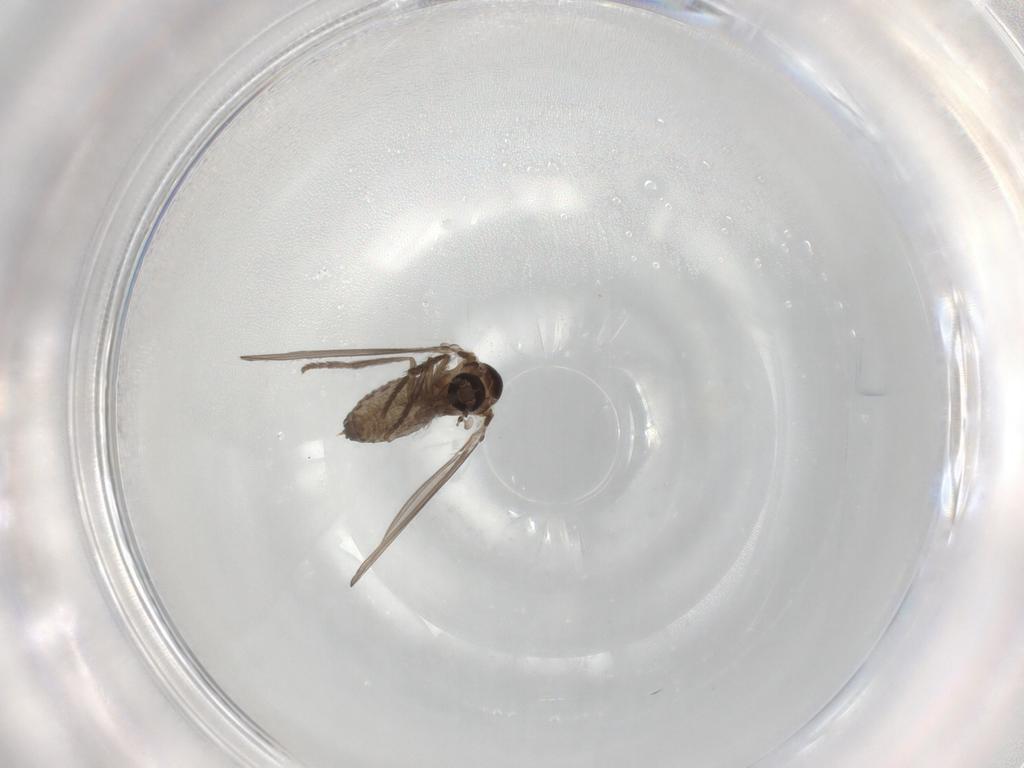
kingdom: Animalia
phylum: Arthropoda
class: Insecta
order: Diptera
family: Psychodidae
